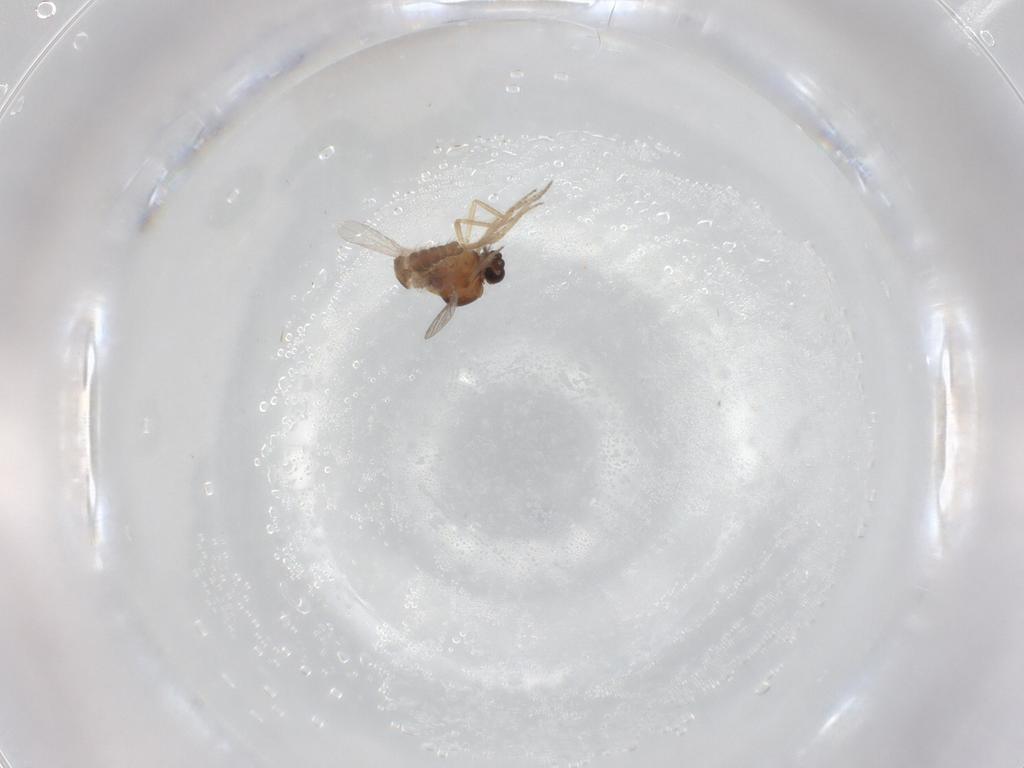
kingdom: Animalia
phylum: Arthropoda
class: Insecta
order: Diptera
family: Ceratopogonidae
